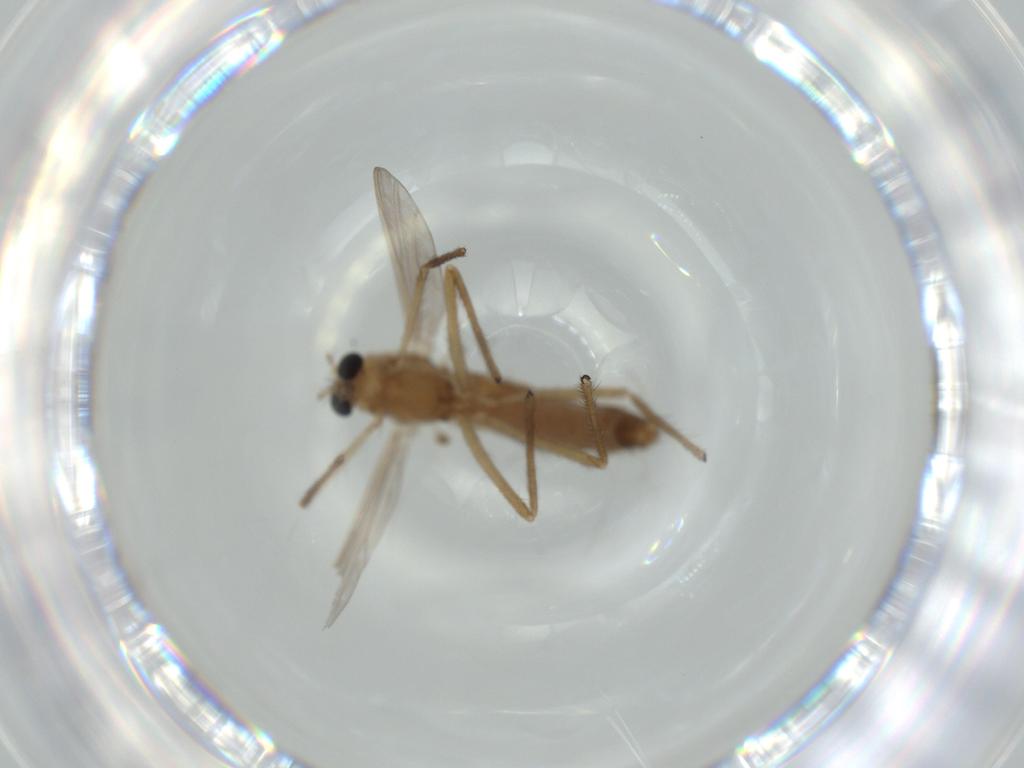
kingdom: Animalia
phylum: Arthropoda
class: Insecta
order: Diptera
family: Chironomidae
